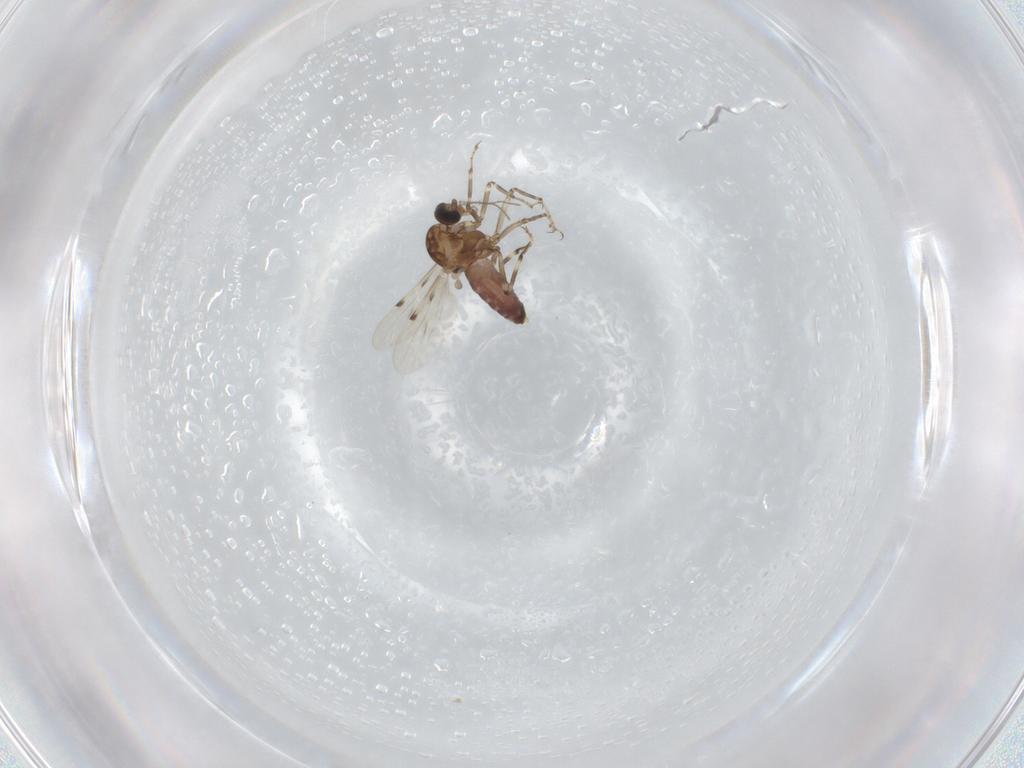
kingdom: Animalia
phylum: Arthropoda
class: Insecta
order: Diptera
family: Ceratopogonidae
